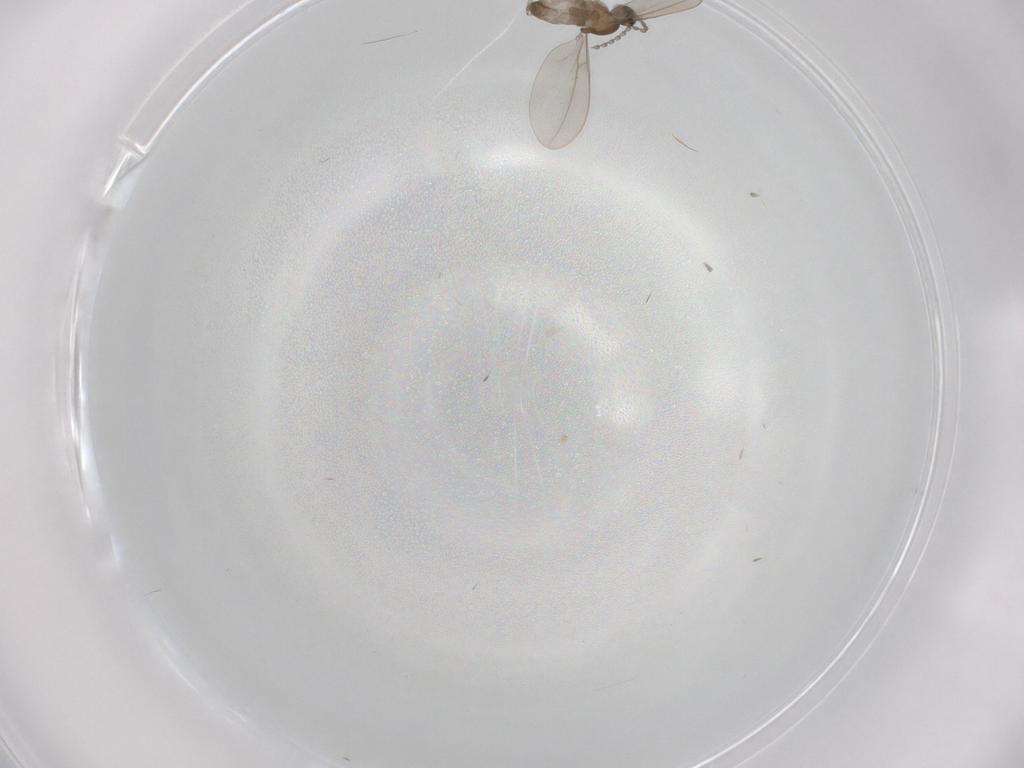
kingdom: Animalia
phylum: Arthropoda
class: Insecta
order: Diptera
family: Cecidomyiidae
